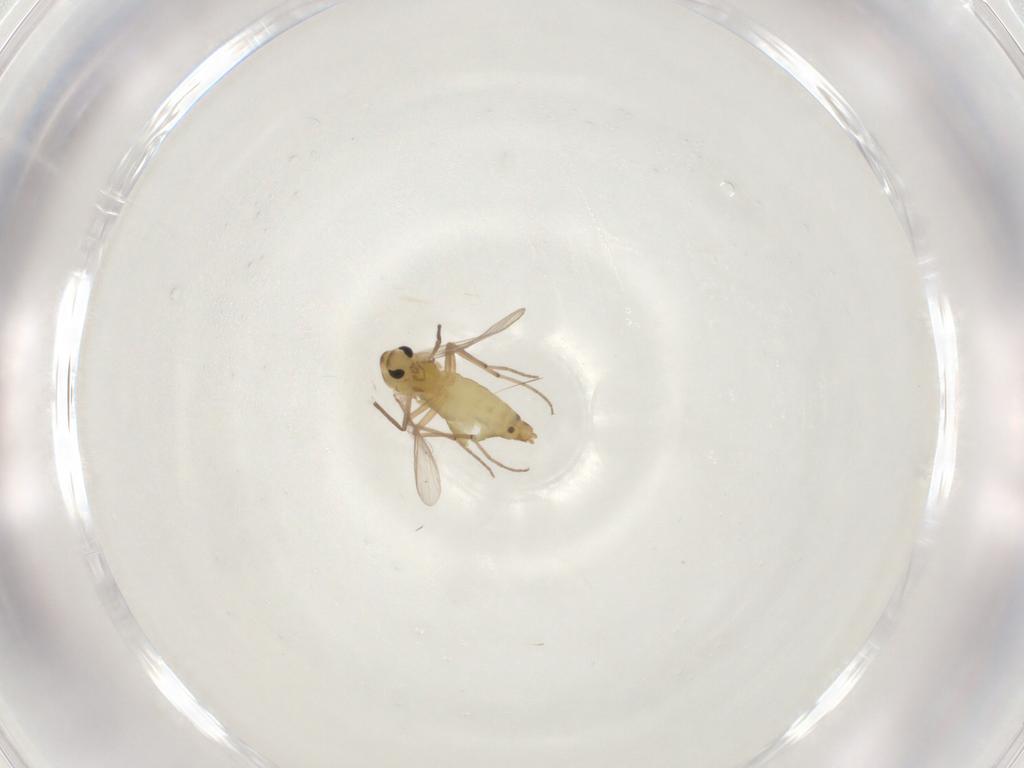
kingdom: Animalia
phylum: Arthropoda
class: Insecta
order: Diptera
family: Chironomidae
